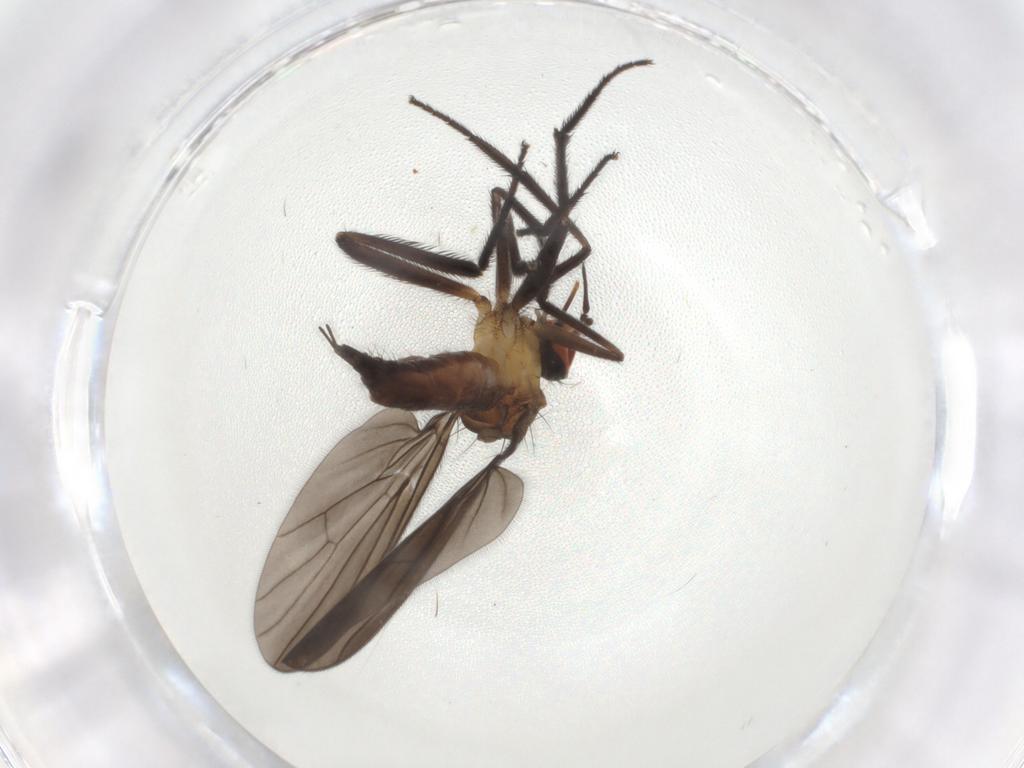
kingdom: Animalia
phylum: Arthropoda
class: Insecta
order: Diptera
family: Empididae
